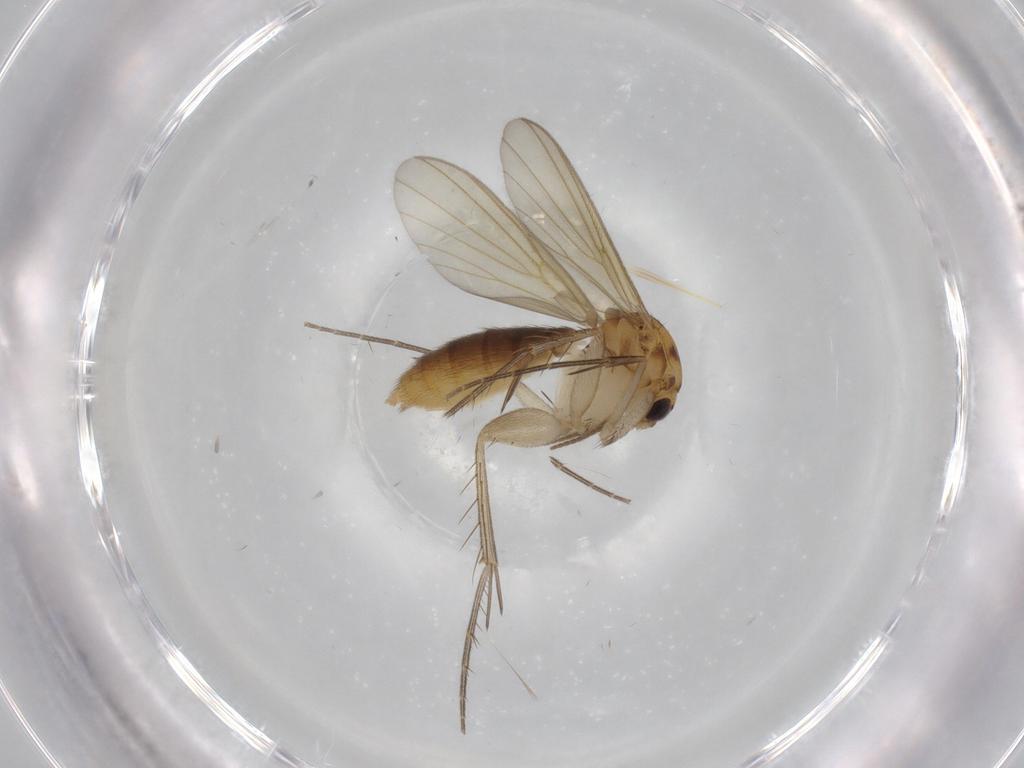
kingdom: Animalia
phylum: Arthropoda
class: Insecta
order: Diptera
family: Mycetophilidae
